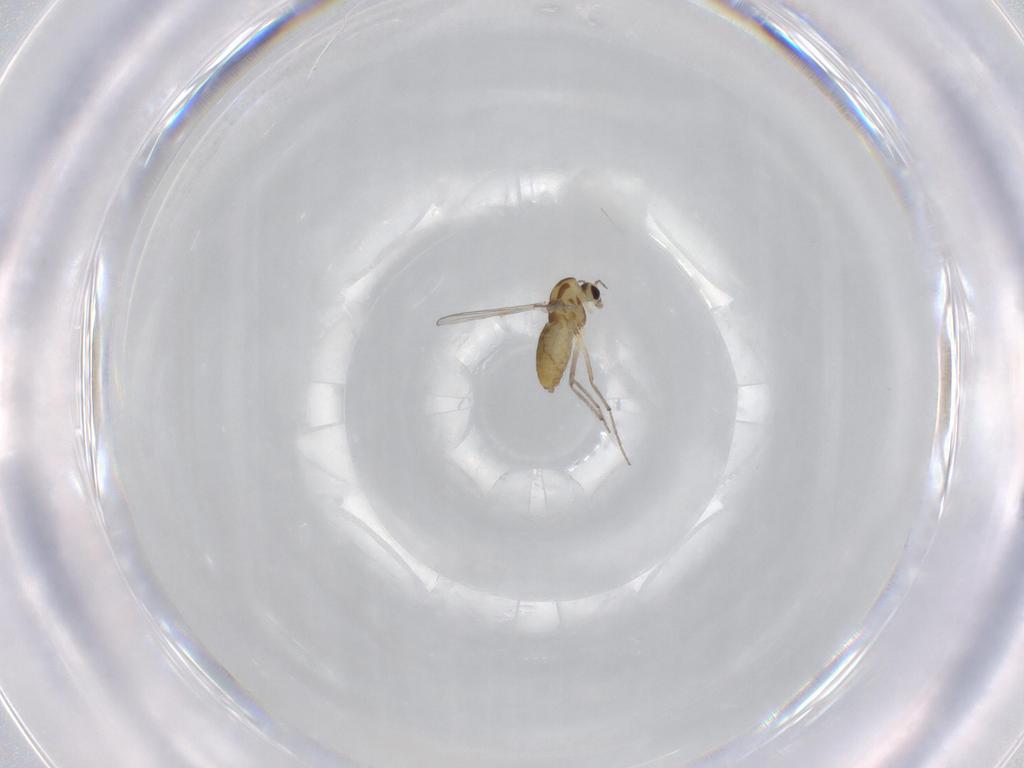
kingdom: Animalia
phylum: Arthropoda
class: Insecta
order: Diptera
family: Chironomidae
